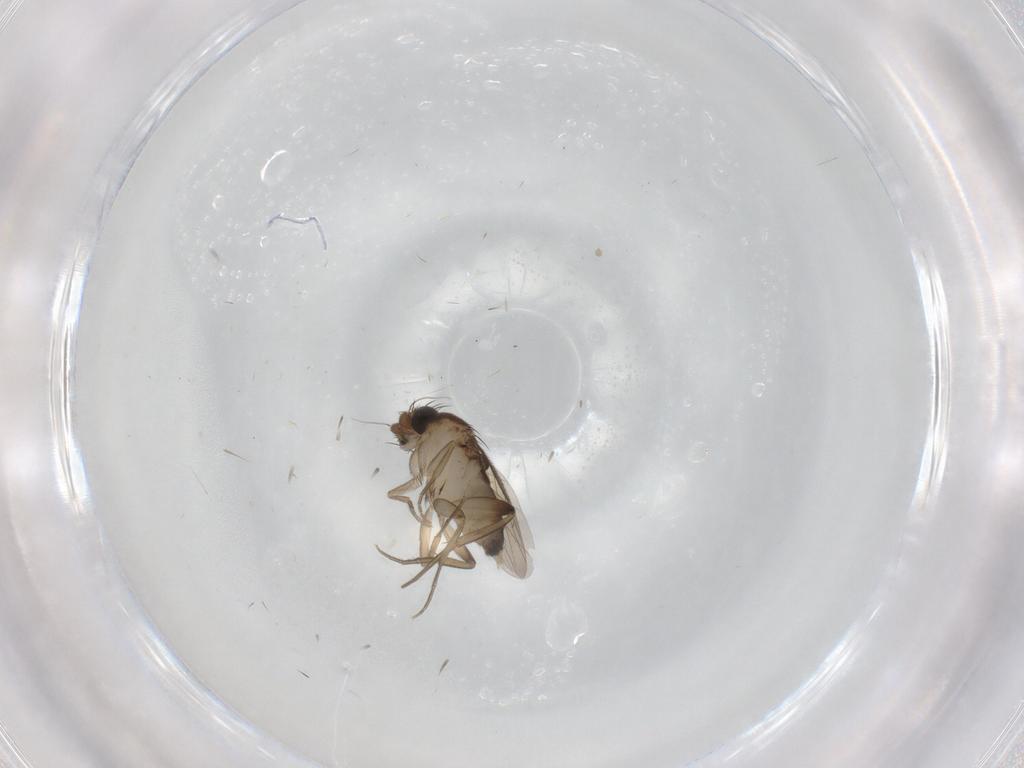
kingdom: Animalia
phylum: Arthropoda
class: Insecta
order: Diptera
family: Phoridae
